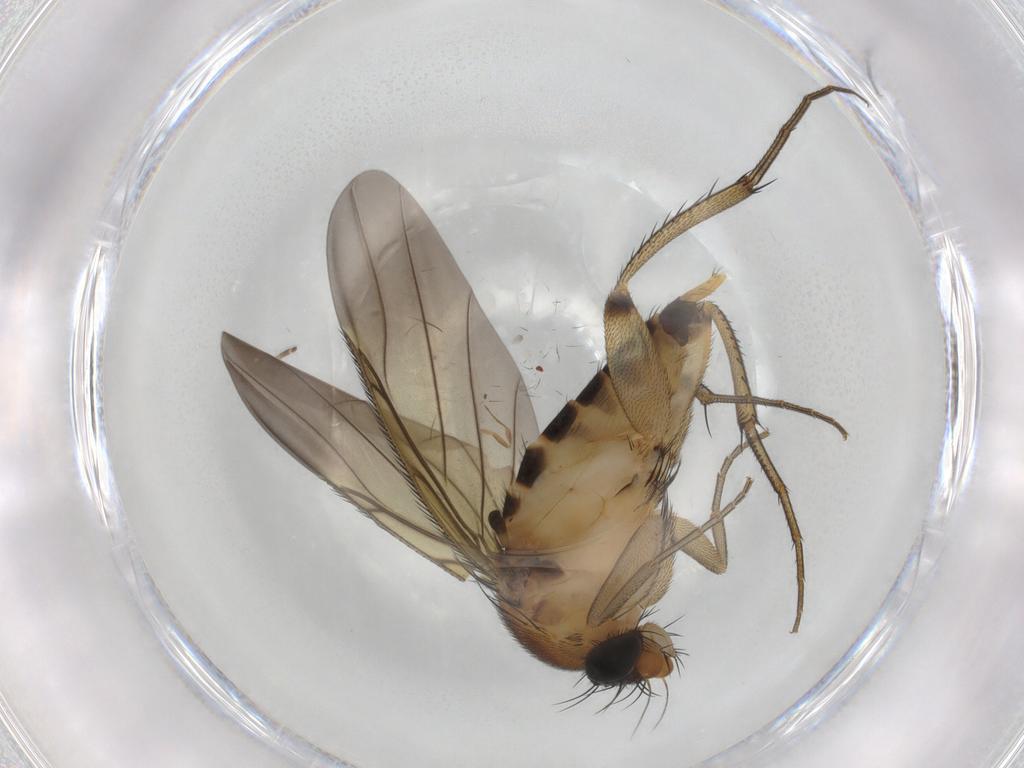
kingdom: Animalia
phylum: Arthropoda
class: Insecta
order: Diptera
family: Phoridae
